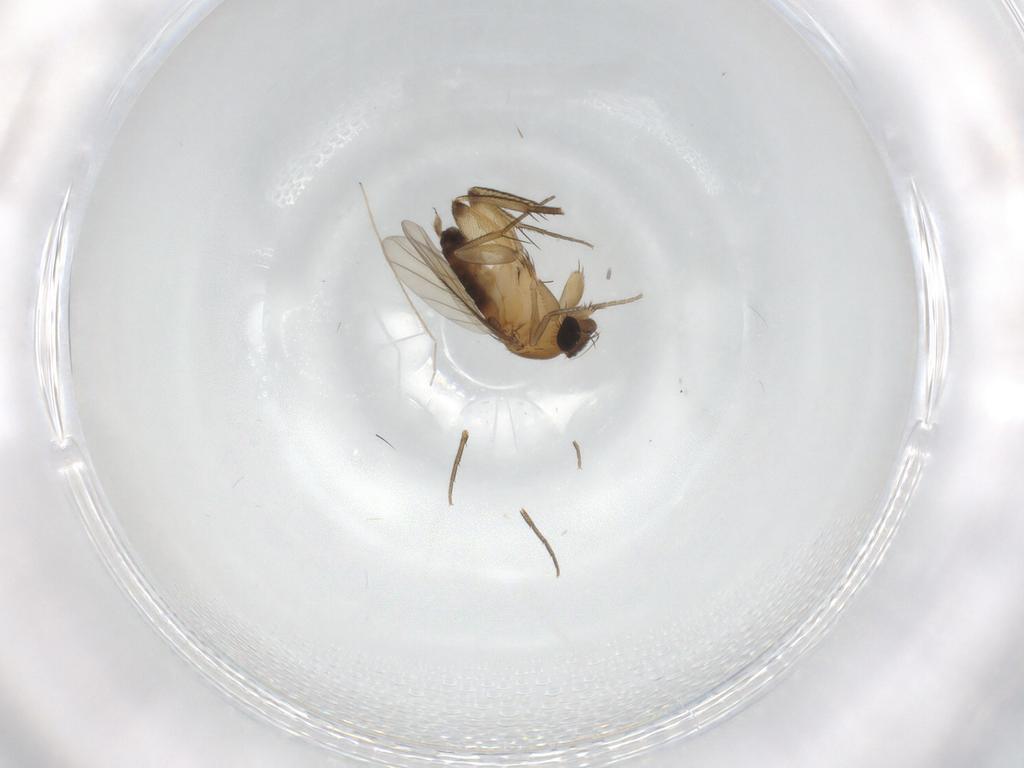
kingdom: Animalia
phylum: Arthropoda
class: Insecta
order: Diptera
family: Phoridae
